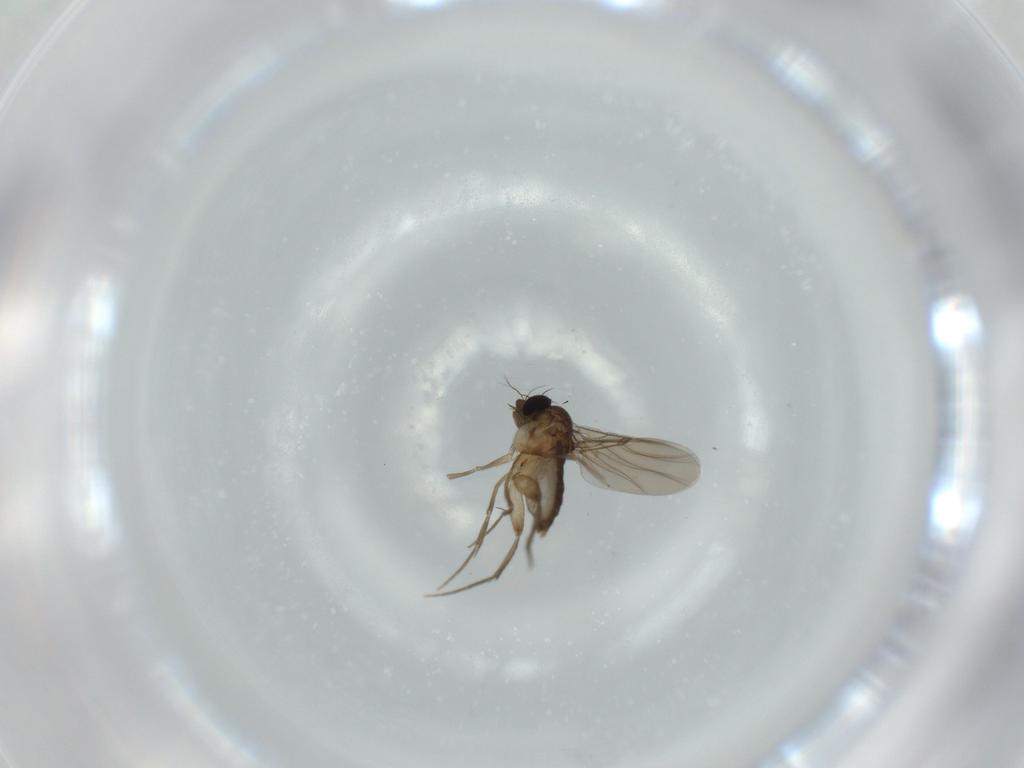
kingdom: Animalia
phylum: Arthropoda
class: Insecta
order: Diptera
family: Phoridae
